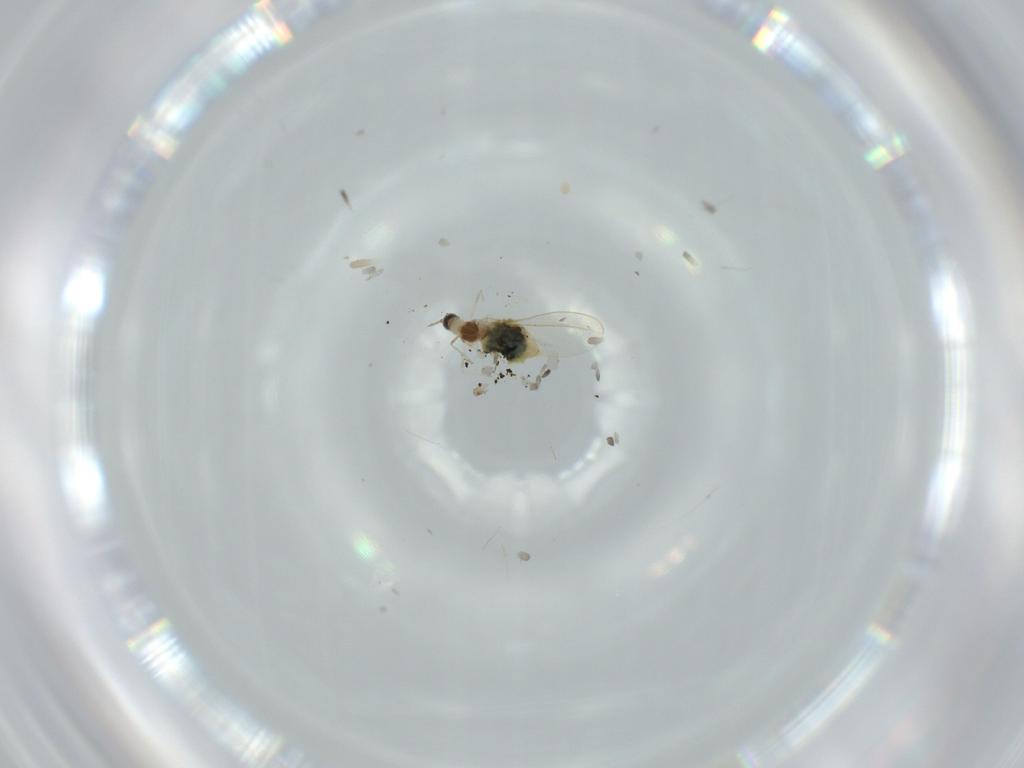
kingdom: Animalia
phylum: Arthropoda
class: Insecta
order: Diptera
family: Cecidomyiidae
